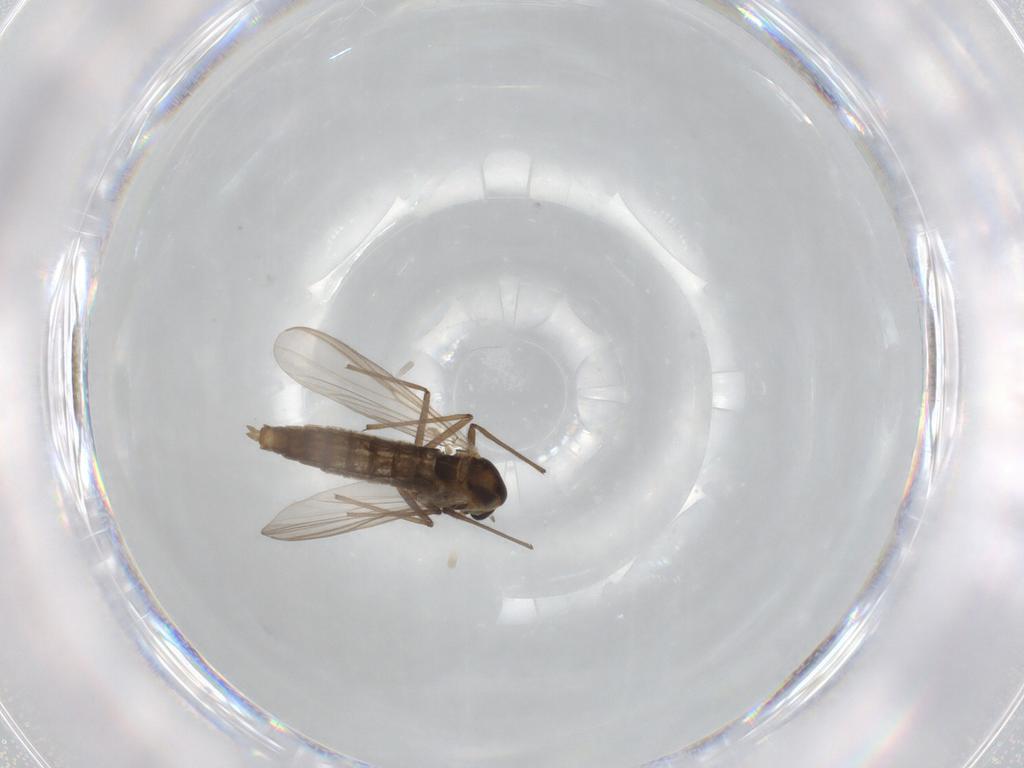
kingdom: Animalia
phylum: Arthropoda
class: Insecta
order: Diptera
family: Chironomidae
